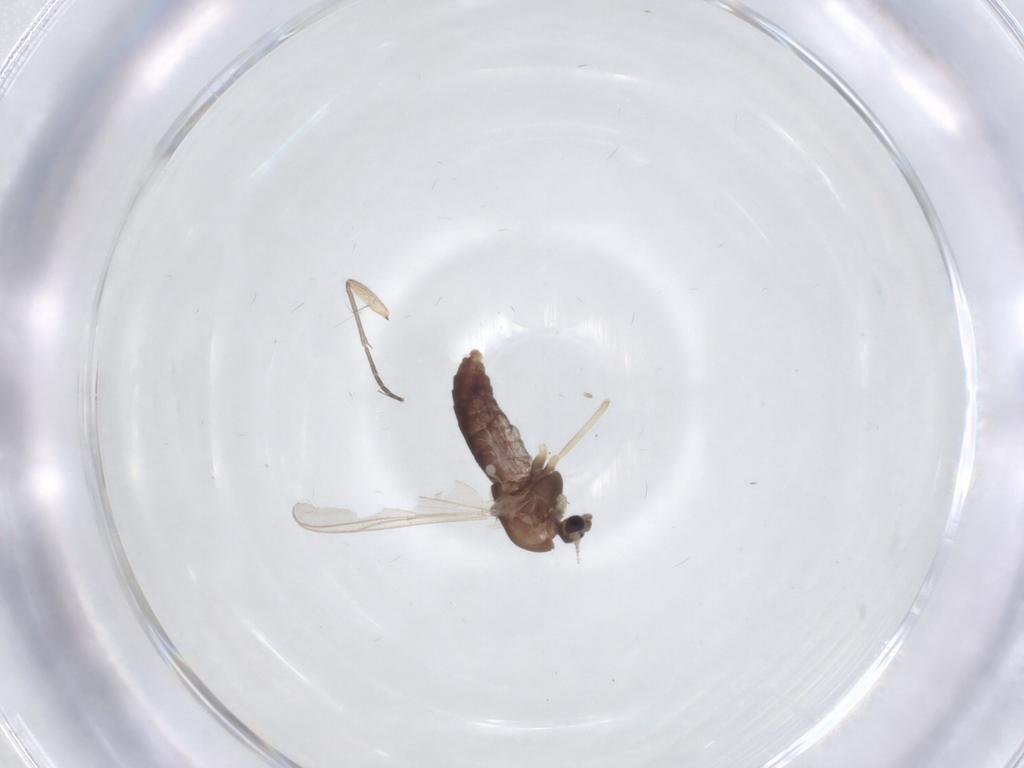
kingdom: Animalia
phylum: Arthropoda
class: Insecta
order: Diptera
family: Chironomidae
